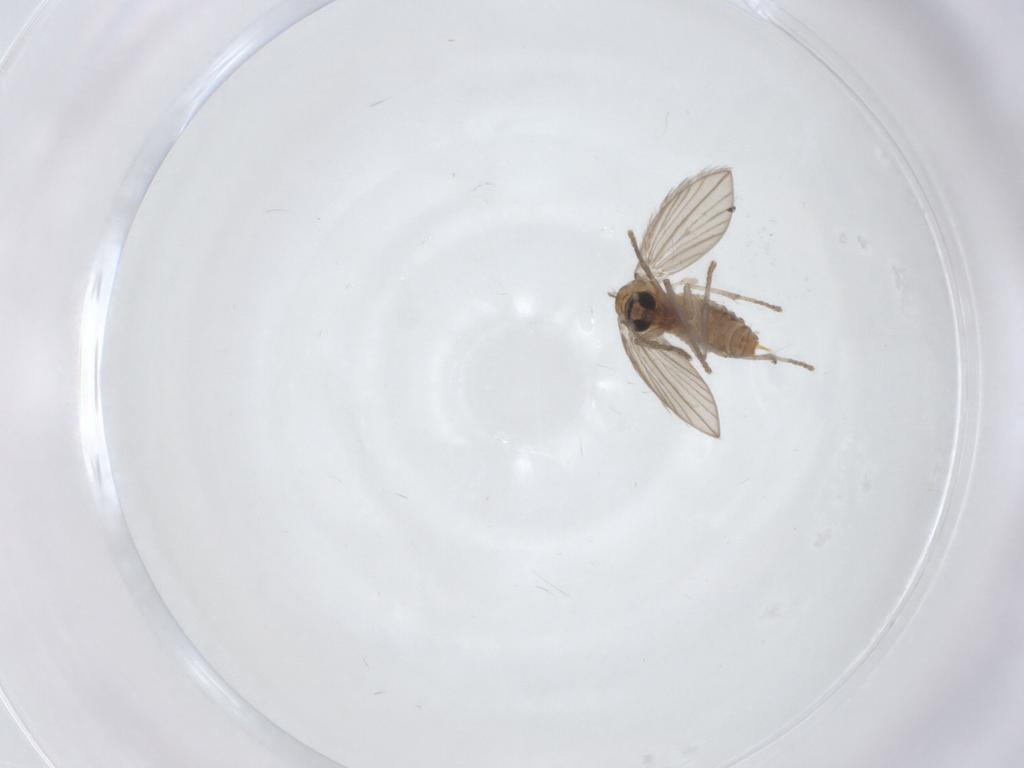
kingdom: Animalia
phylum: Arthropoda
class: Insecta
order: Diptera
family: Psychodidae
